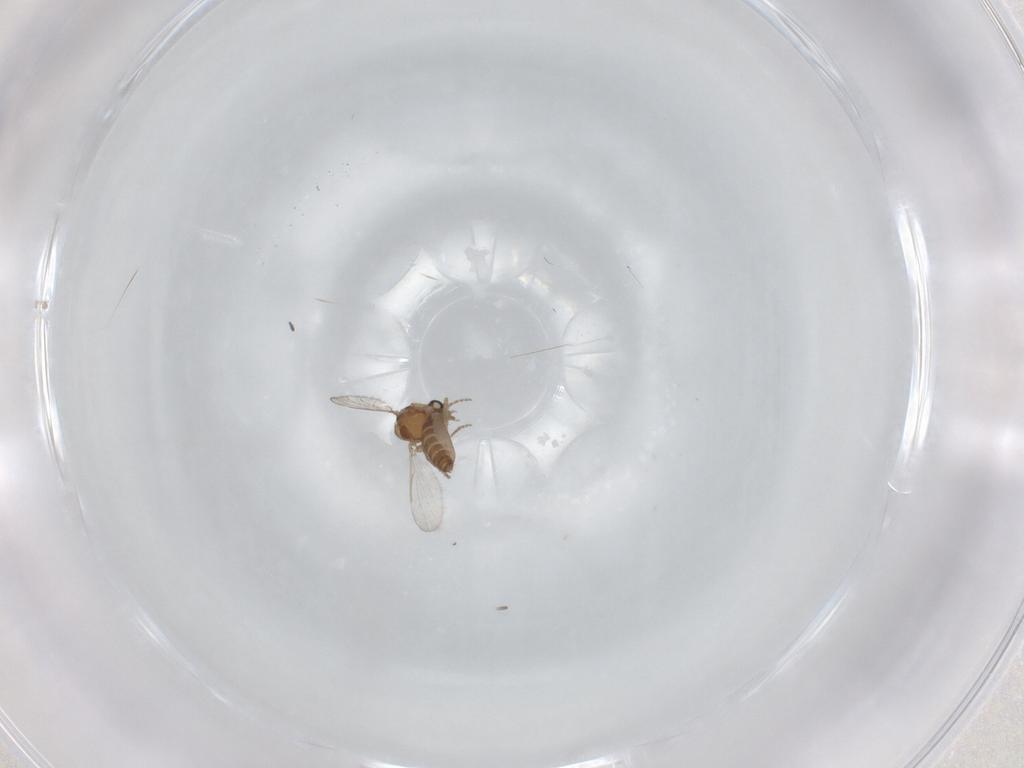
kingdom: Animalia
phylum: Arthropoda
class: Insecta
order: Diptera
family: Ceratopogonidae
